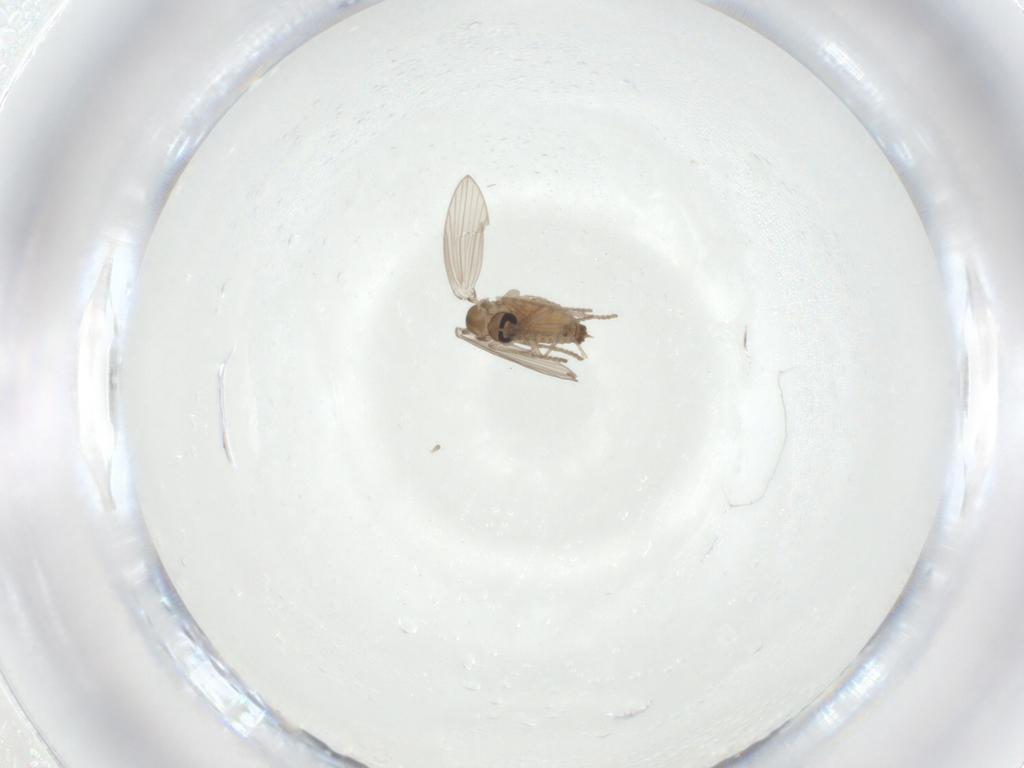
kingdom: Animalia
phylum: Arthropoda
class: Insecta
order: Diptera
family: Psychodidae
